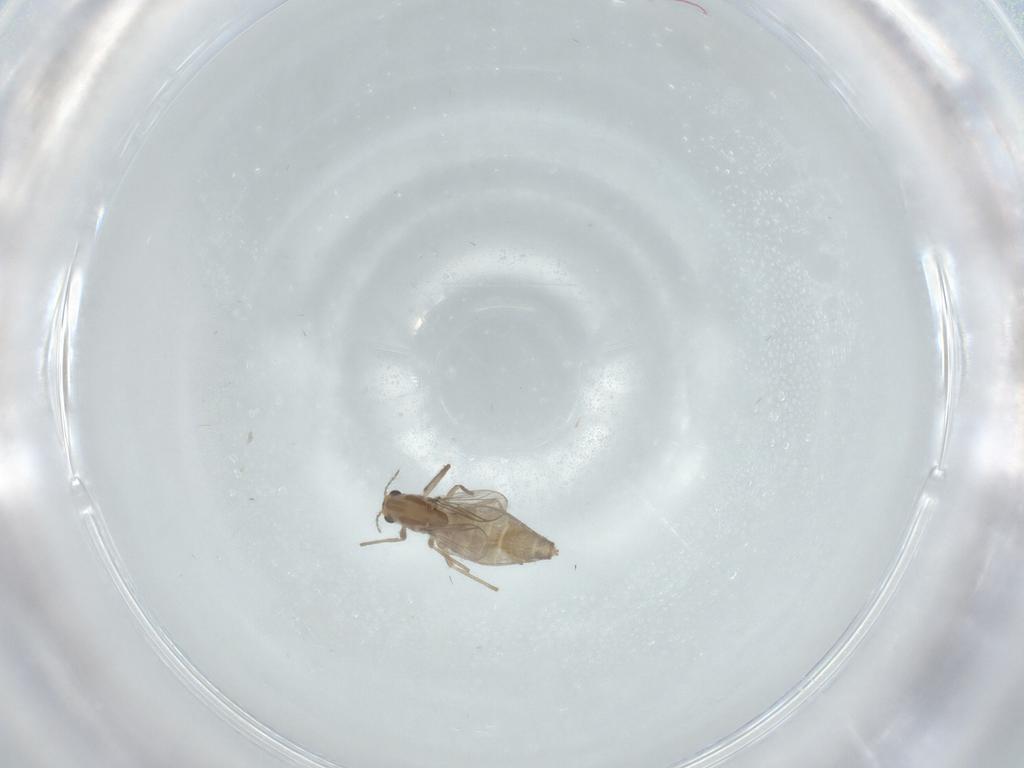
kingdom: Animalia
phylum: Arthropoda
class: Insecta
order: Diptera
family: Chironomidae
